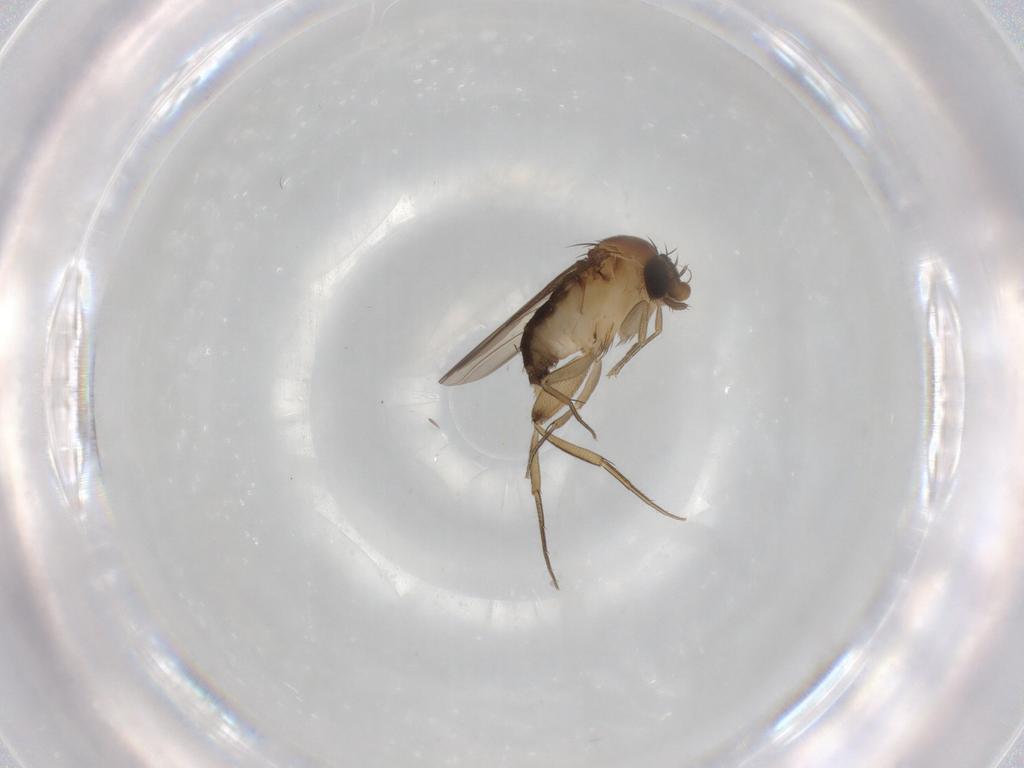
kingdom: Animalia
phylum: Arthropoda
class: Insecta
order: Diptera
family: Phoridae
